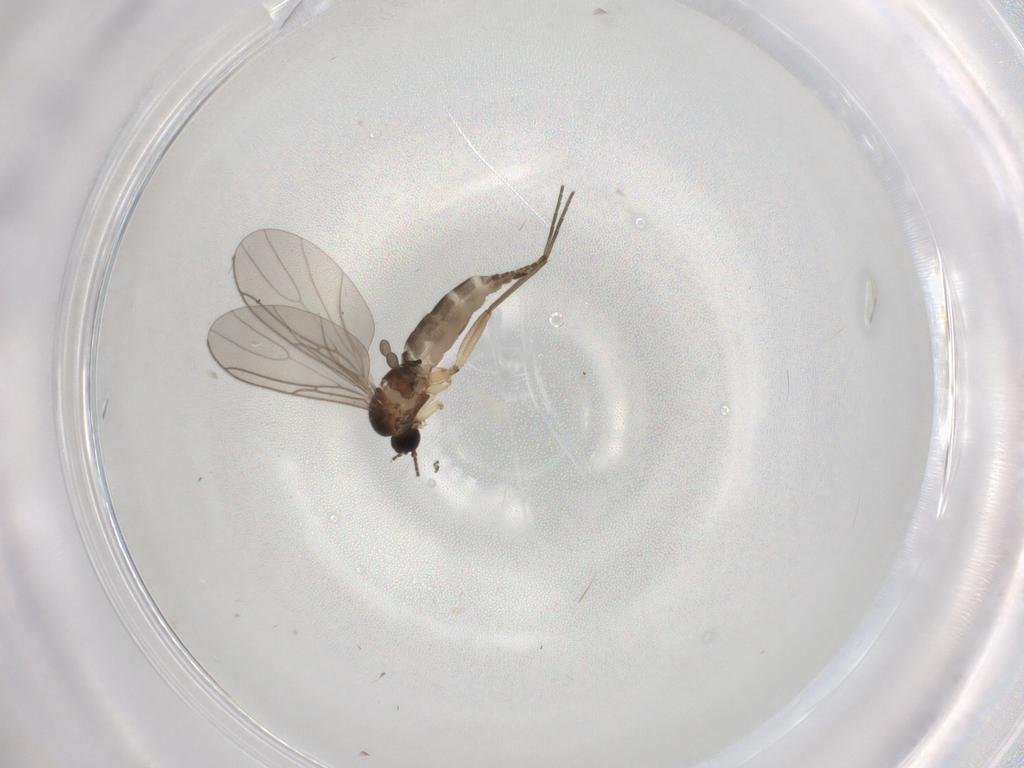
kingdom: Animalia
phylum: Arthropoda
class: Insecta
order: Diptera
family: Sciaridae
